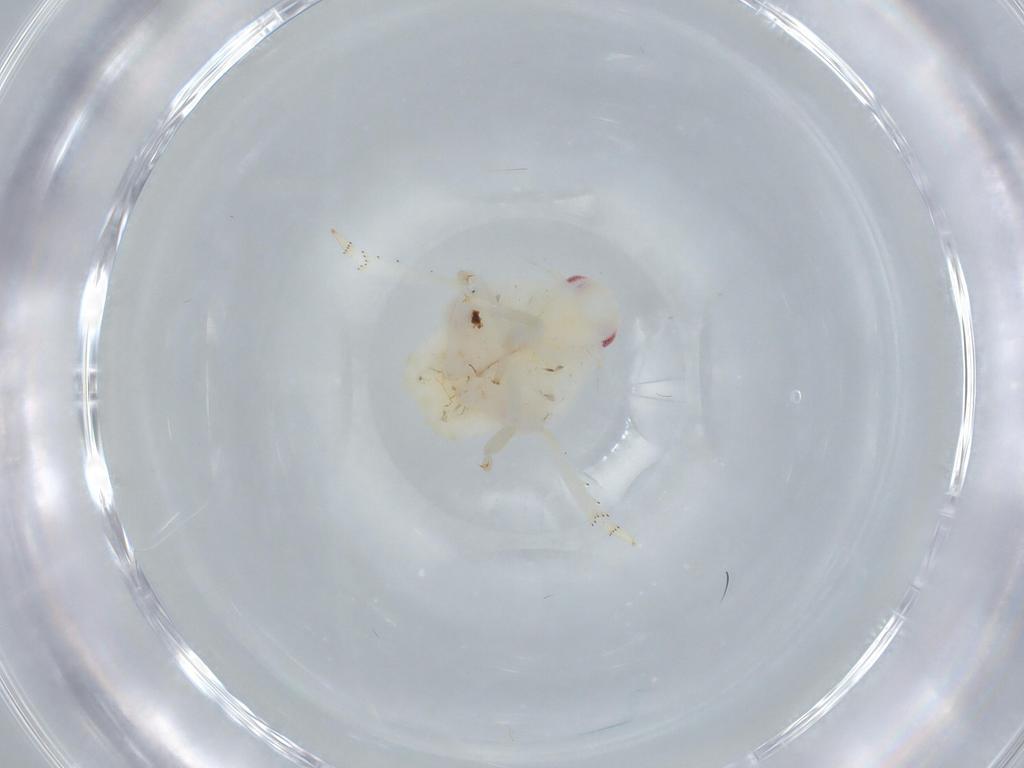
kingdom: Animalia
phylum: Arthropoda
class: Insecta
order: Hemiptera
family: Flatidae
